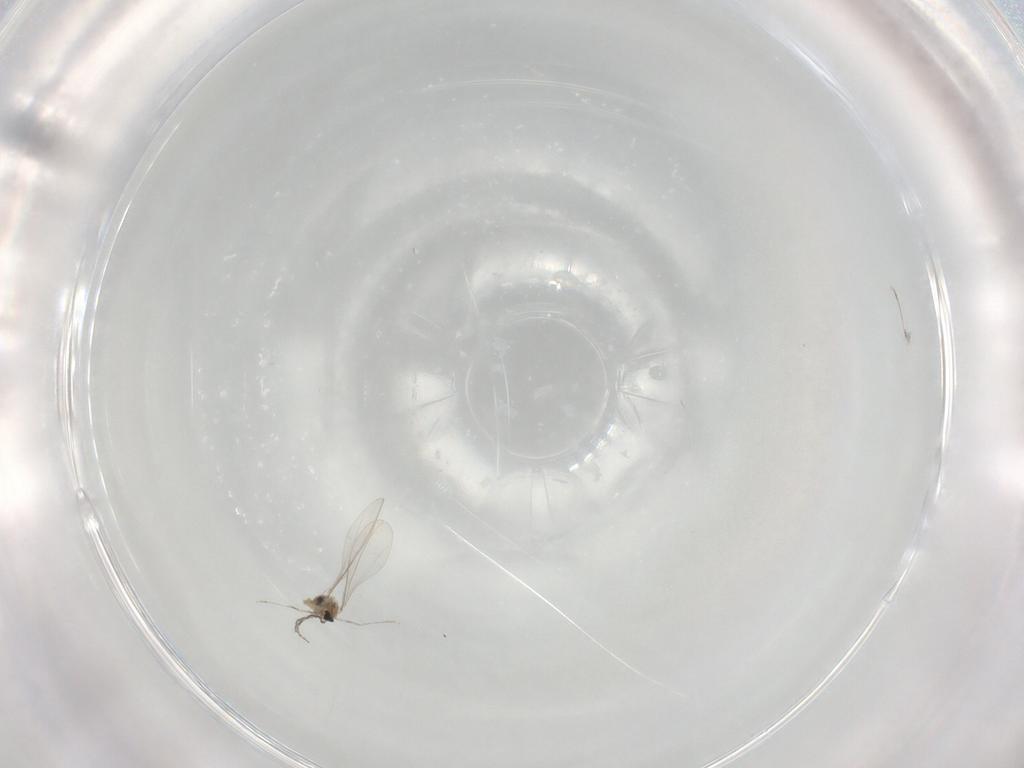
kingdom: Animalia
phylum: Arthropoda
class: Insecta
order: Diptera
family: Cecidomyiidae
